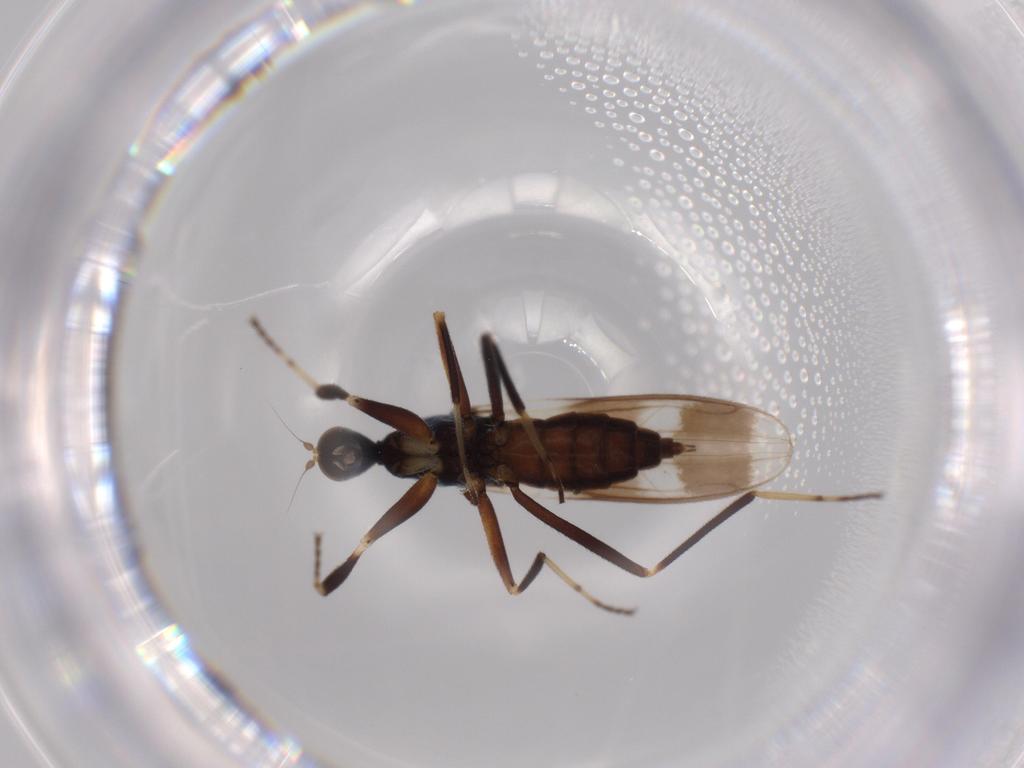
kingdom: Animalia
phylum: Arthropoda
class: Insecta
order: Diptera
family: Hybotidae
